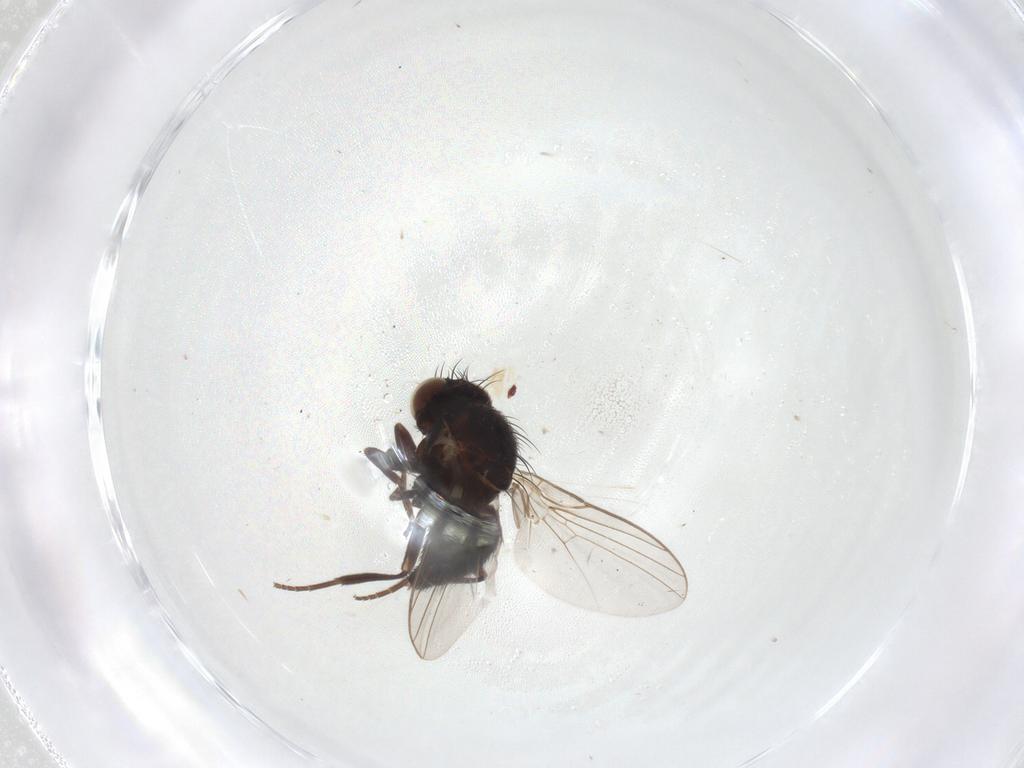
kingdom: Animalia
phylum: Arthropoda
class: Insecta
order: Diptera
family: Agromyzidae
